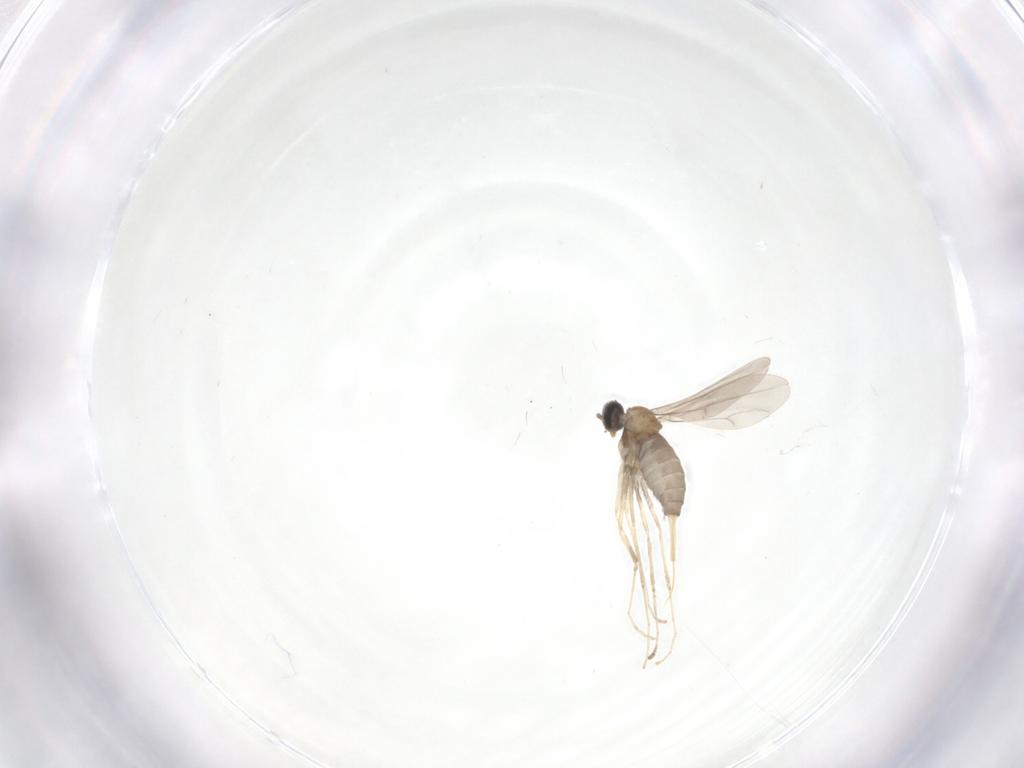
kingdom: Animalia
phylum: Arthropoda
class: Insecta
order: Diptera
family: Cecidomyiidae
